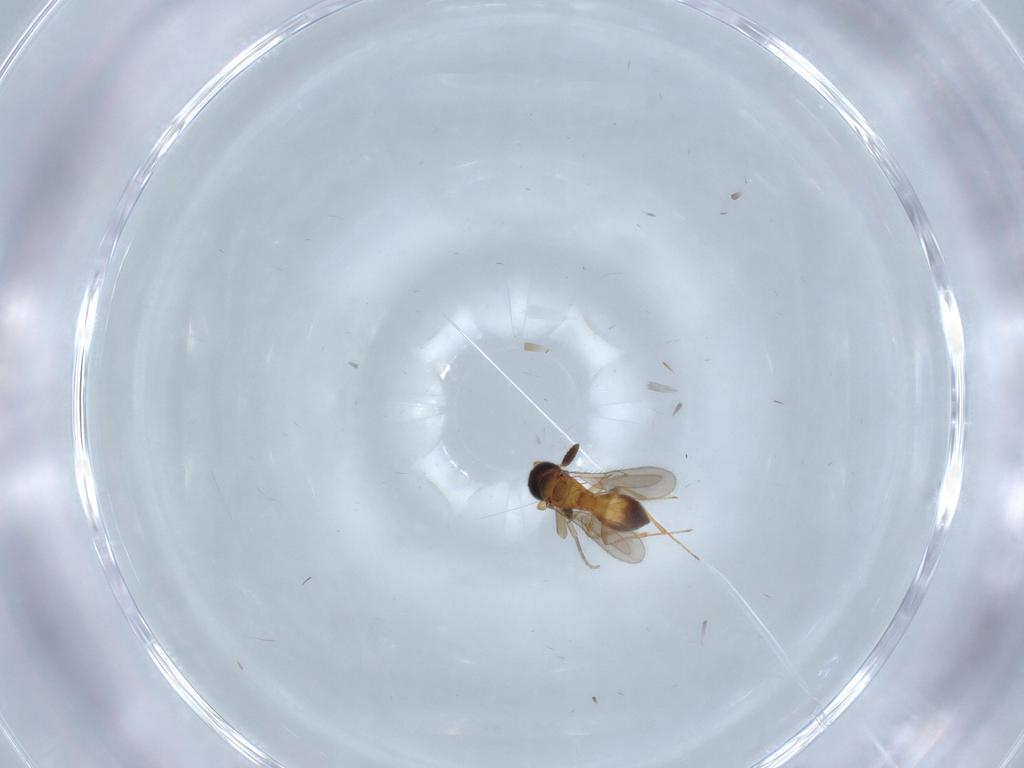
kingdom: Animalia
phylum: Arthropoda
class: Insecta
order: Hymenoptera
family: Scelionidae
